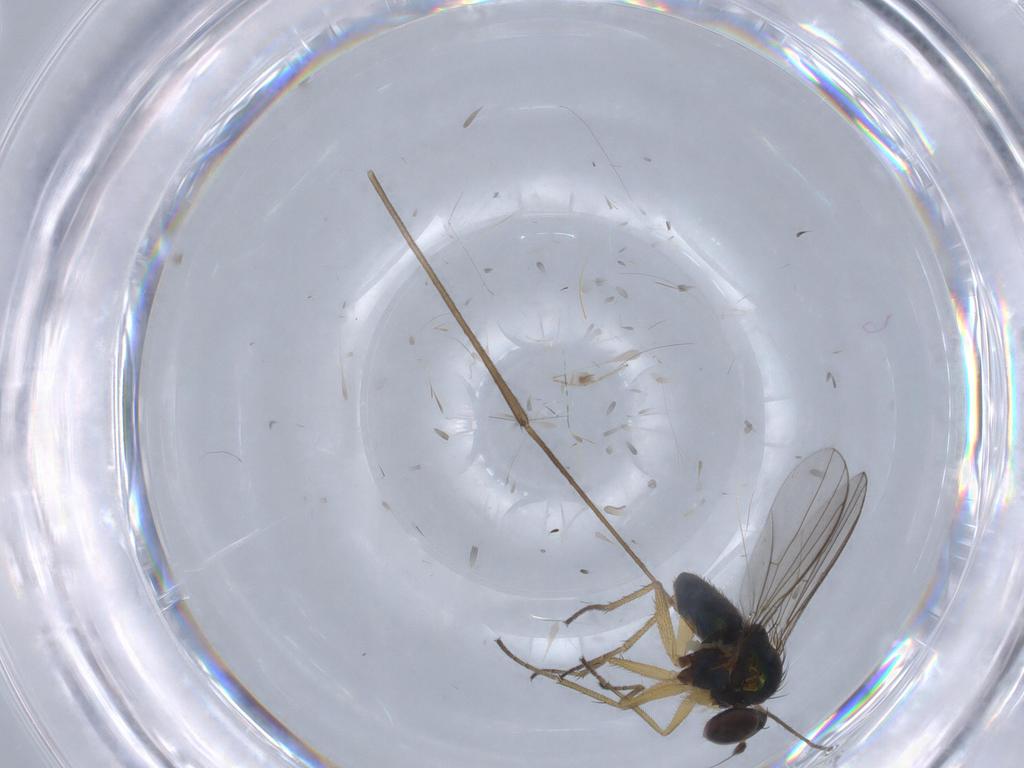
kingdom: Animalia
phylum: Arthropoda
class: Insecta
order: Diptera
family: Limoniidae
